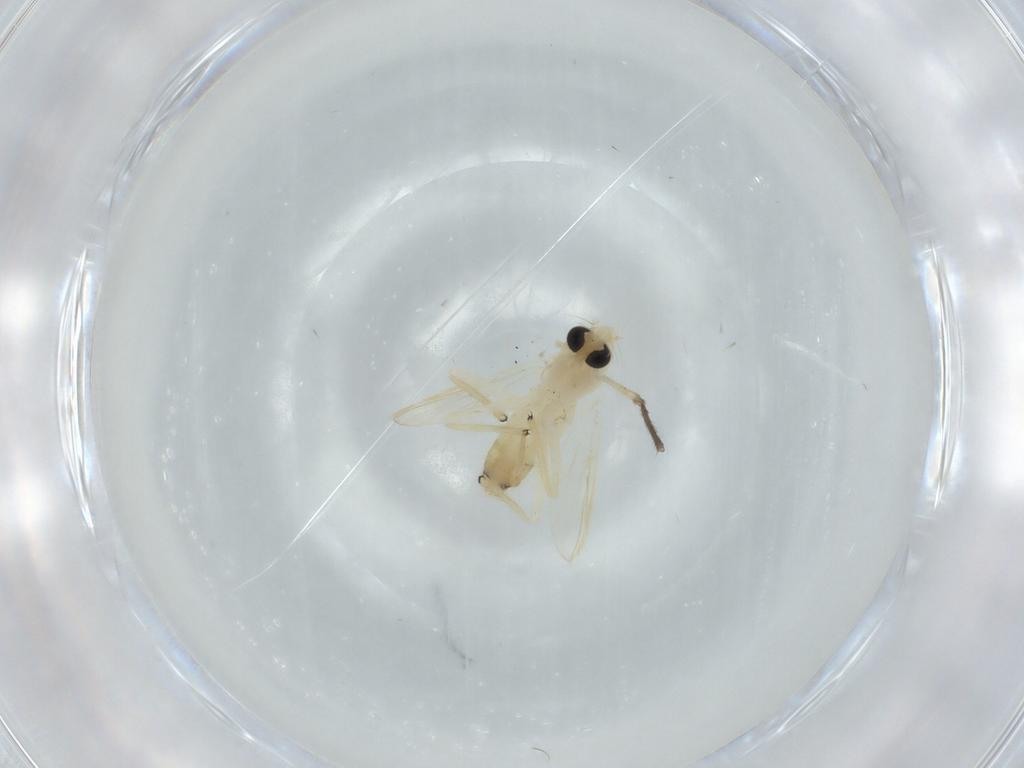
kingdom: Animalia
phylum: Arthropoda
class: Insecta
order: Diptera
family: Chironomidae
